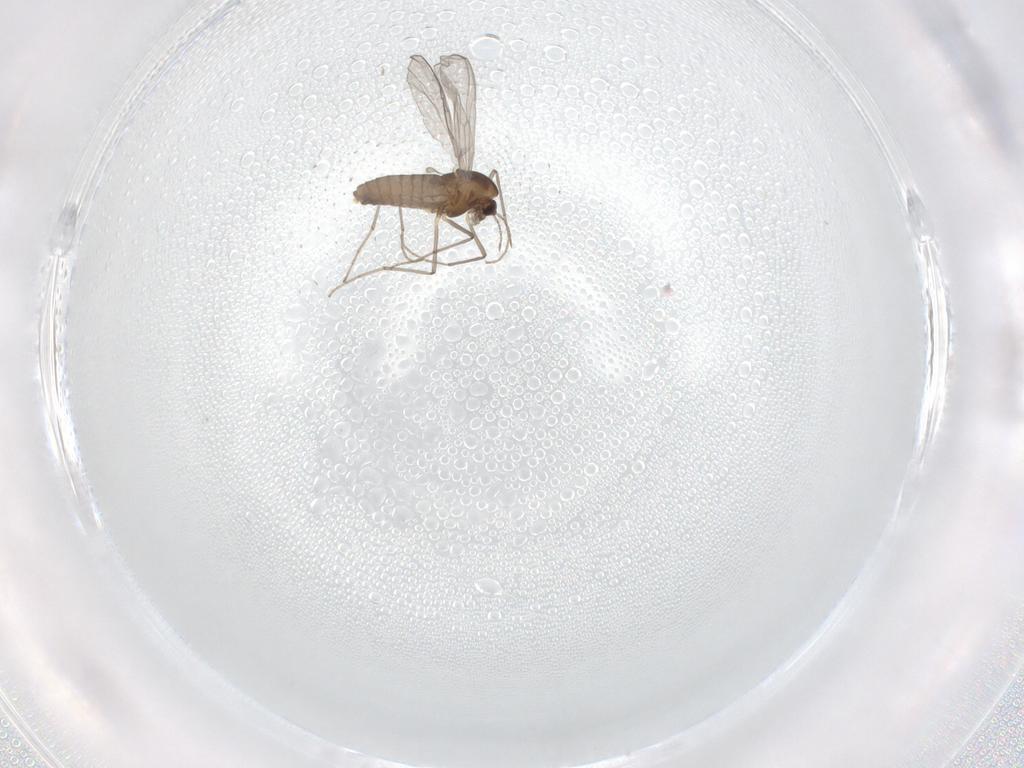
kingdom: Animalia
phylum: Arthropoda
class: Insecta
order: Diptera
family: Chironomidae
